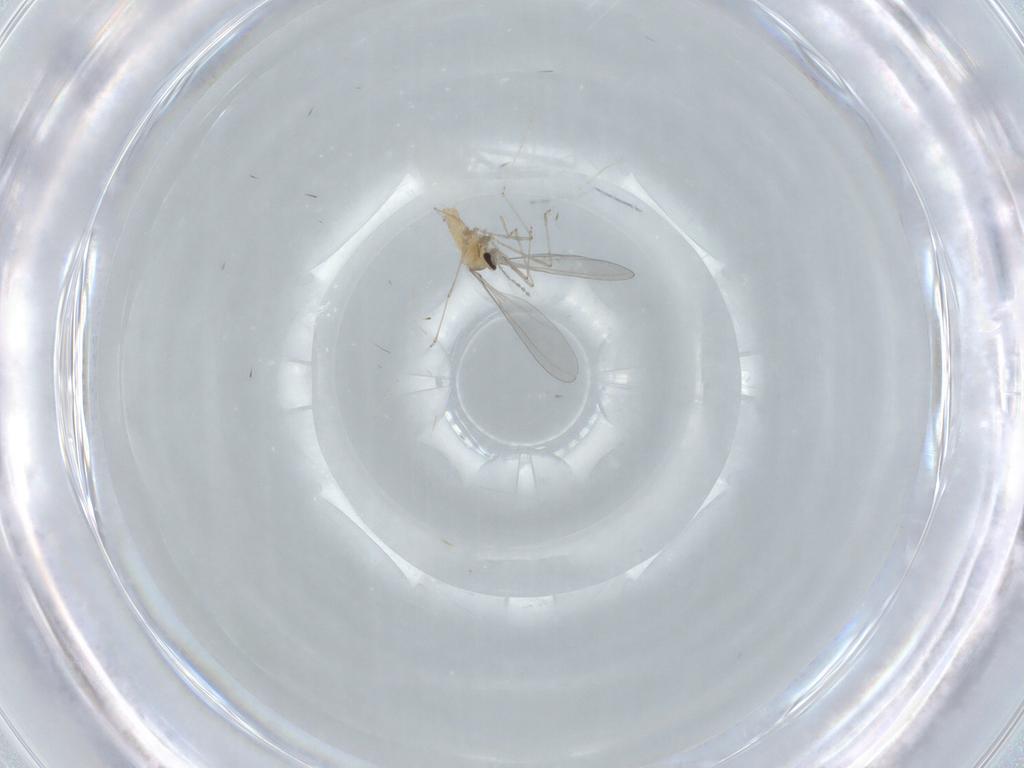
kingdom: Animalia
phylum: Arthropoda
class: Insecta
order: Diptera
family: Cecidomyiidae
